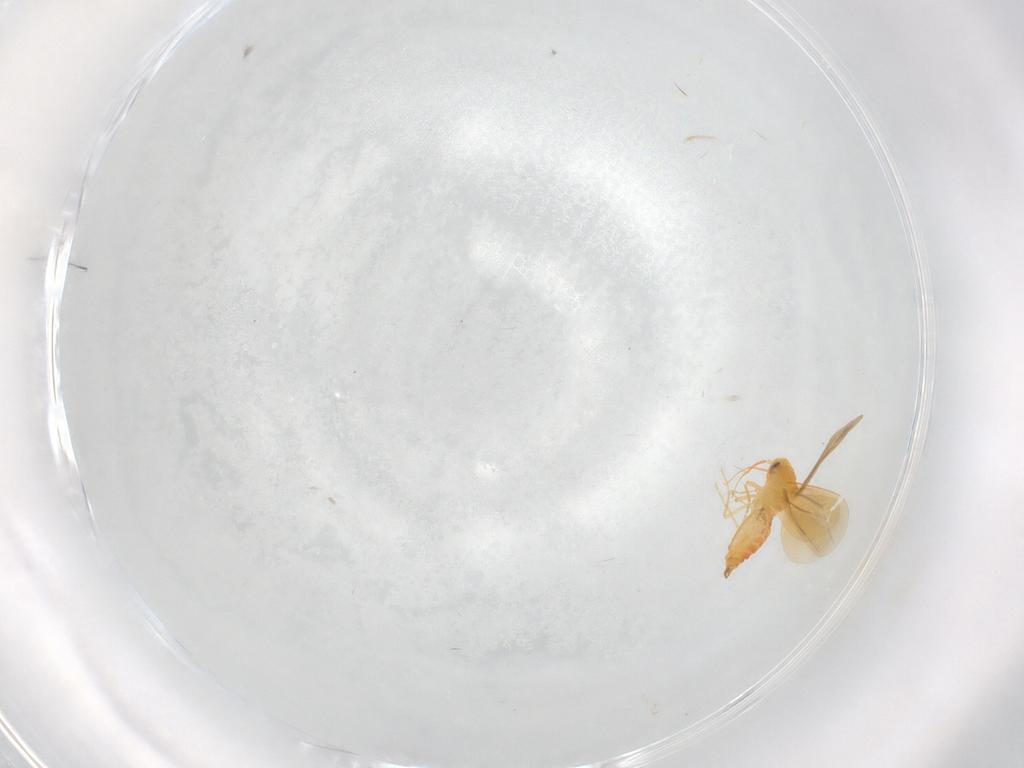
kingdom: Animalia
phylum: Arthropoda
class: Insecta
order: Hemiptera
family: Aleyrodidae
